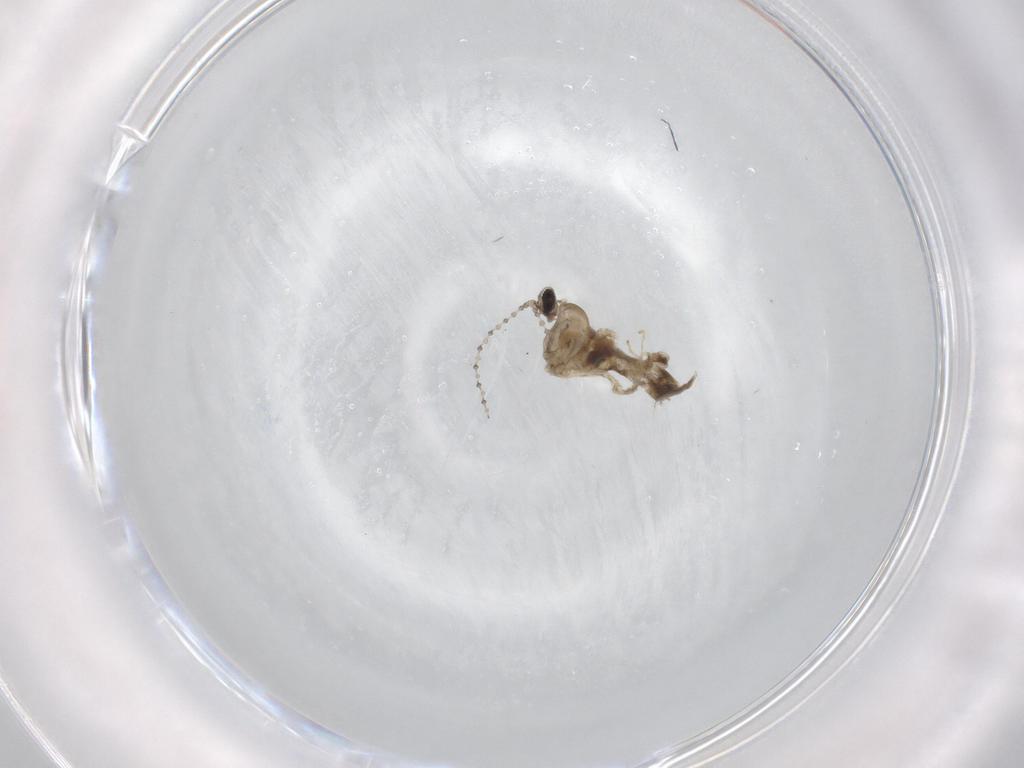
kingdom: Animalia
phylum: Arthropoda
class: Insecta
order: Diptera
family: Cecidomyiidae
